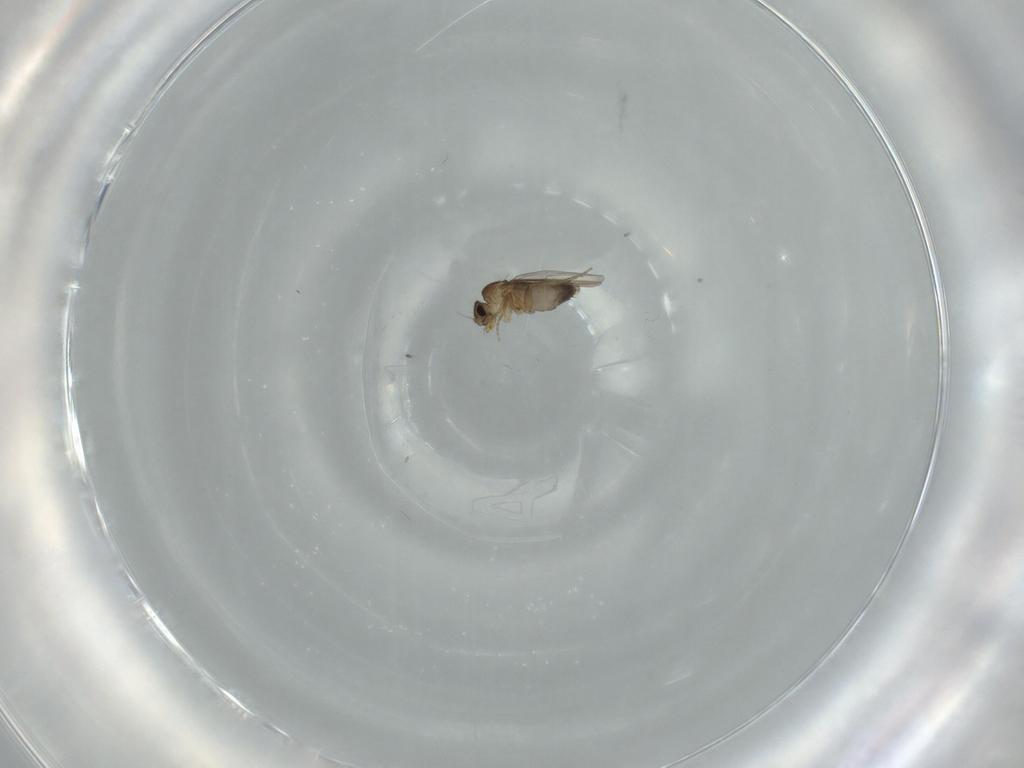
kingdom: Animalia
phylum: Arthropoda
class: Insecta
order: Diptera
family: Phoridae
